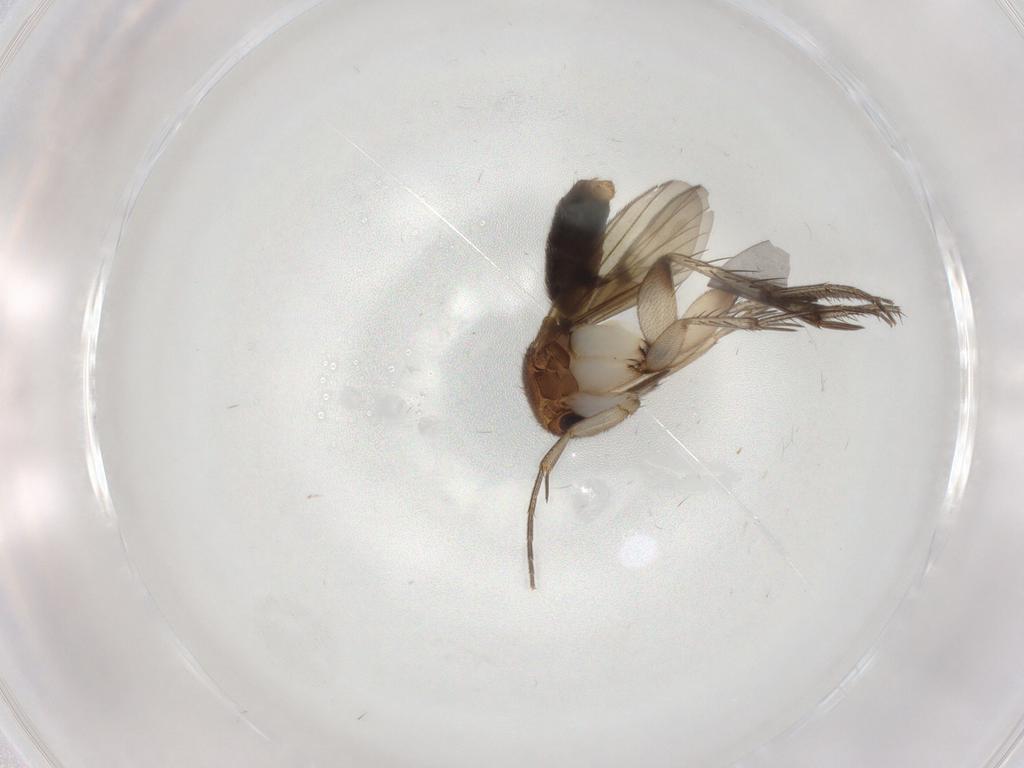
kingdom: Animalia
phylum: Arthropoda
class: Insecta
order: Diptera
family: Mycetophilidae
